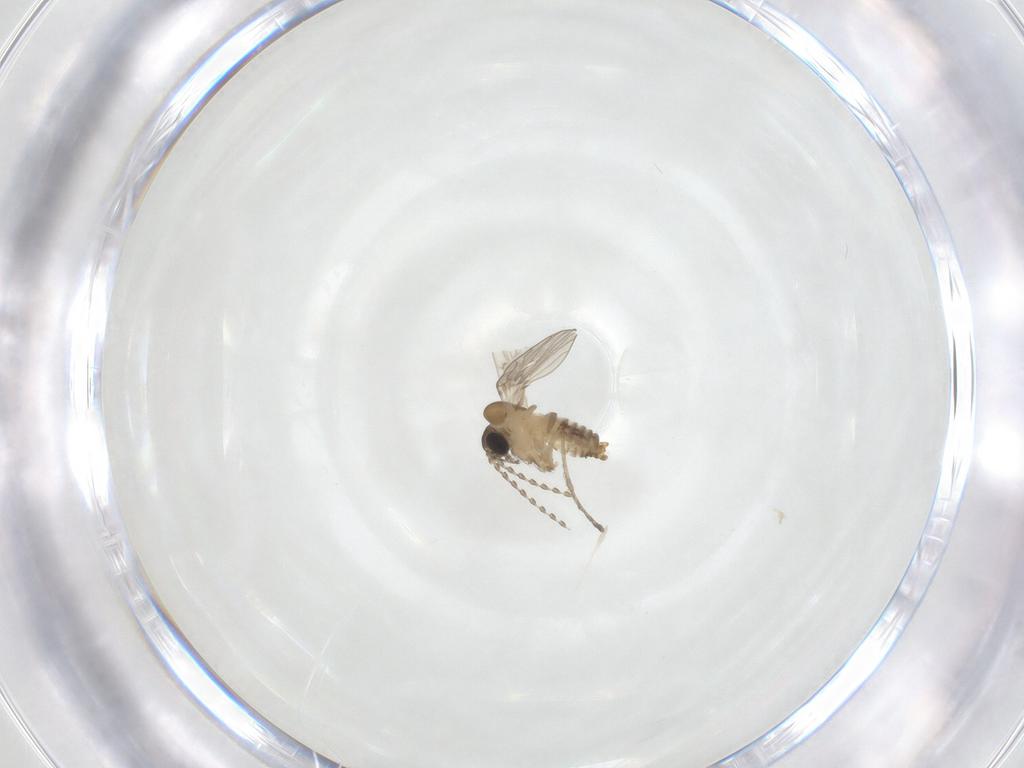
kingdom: Animalia
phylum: Arthropoda
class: Insecta
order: Diptera
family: Psychodidae
